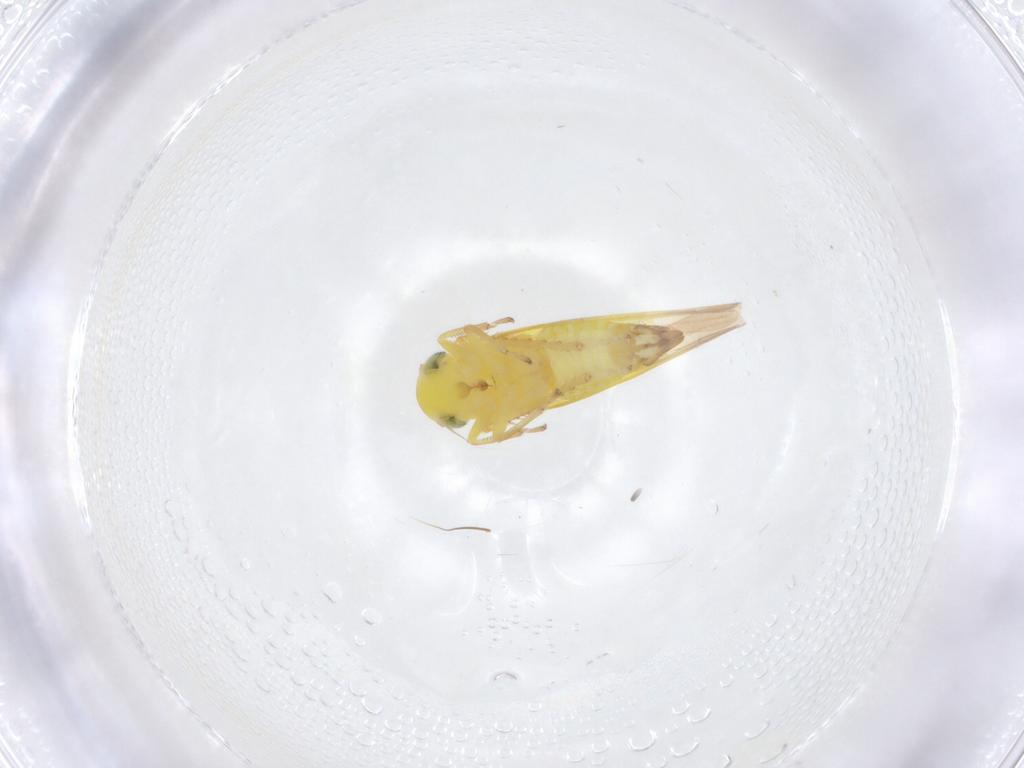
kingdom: Animalia
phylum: Arthropoda
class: Insecta
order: Hemiptera
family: Cicadellidae
